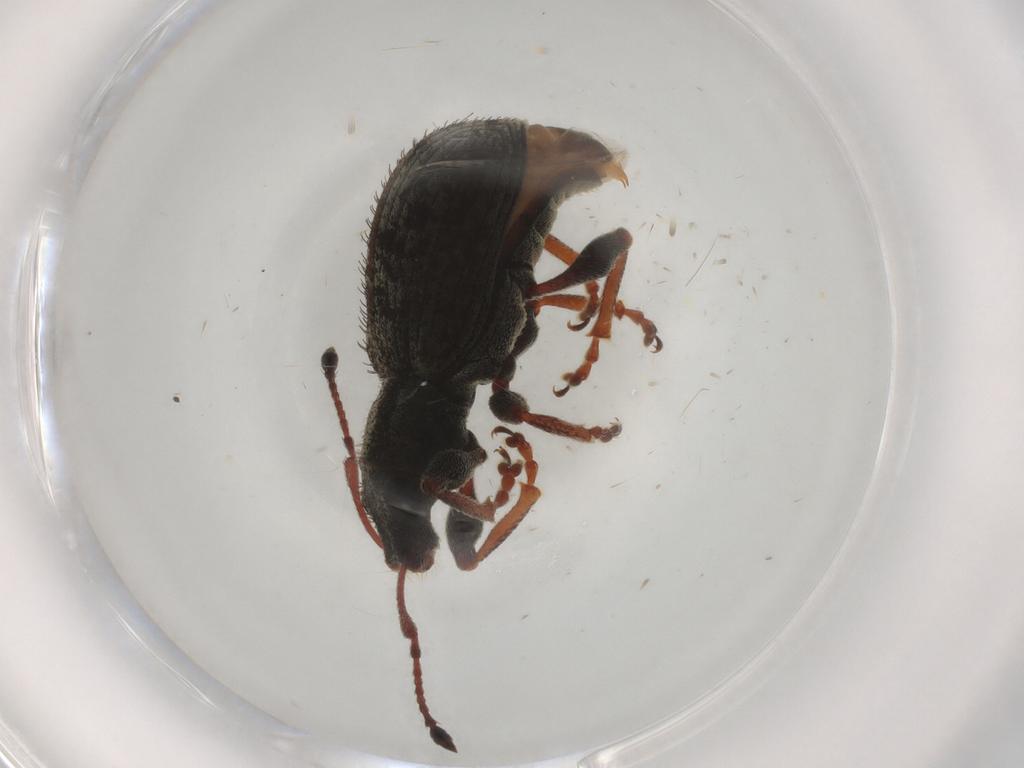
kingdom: Animalia
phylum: Arthropoda
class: Insecta
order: Coleoptera
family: Curculionidae
